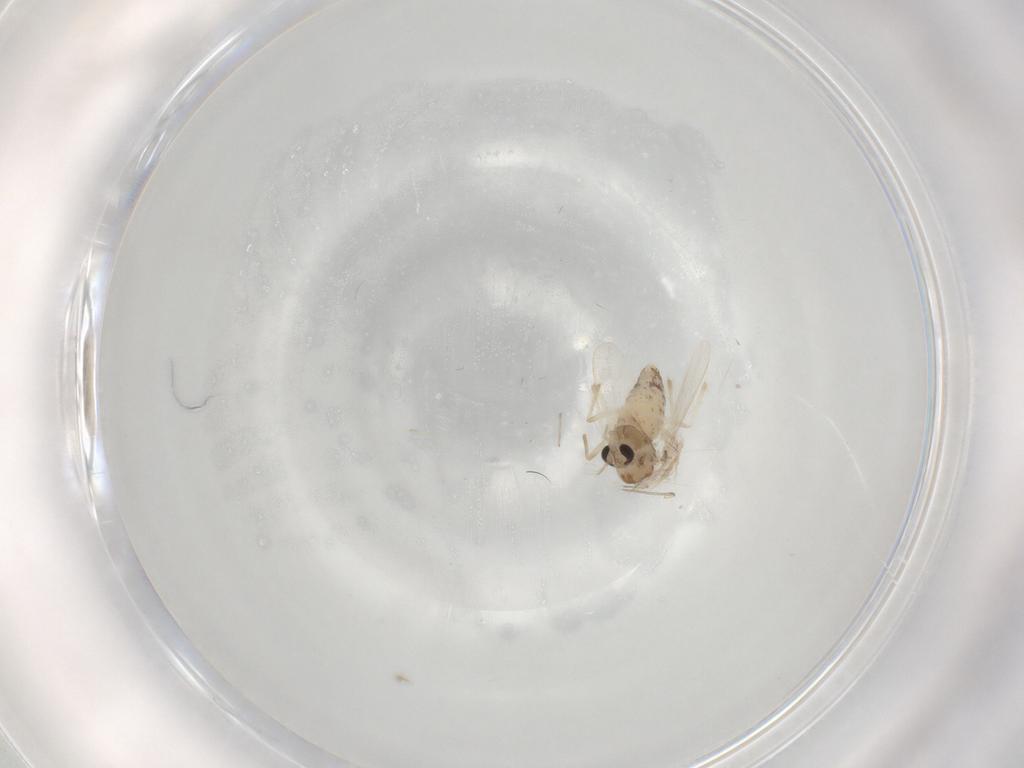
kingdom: Animalia
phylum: Arthropoda
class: Insecta
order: Diptera
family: Chironomidae
